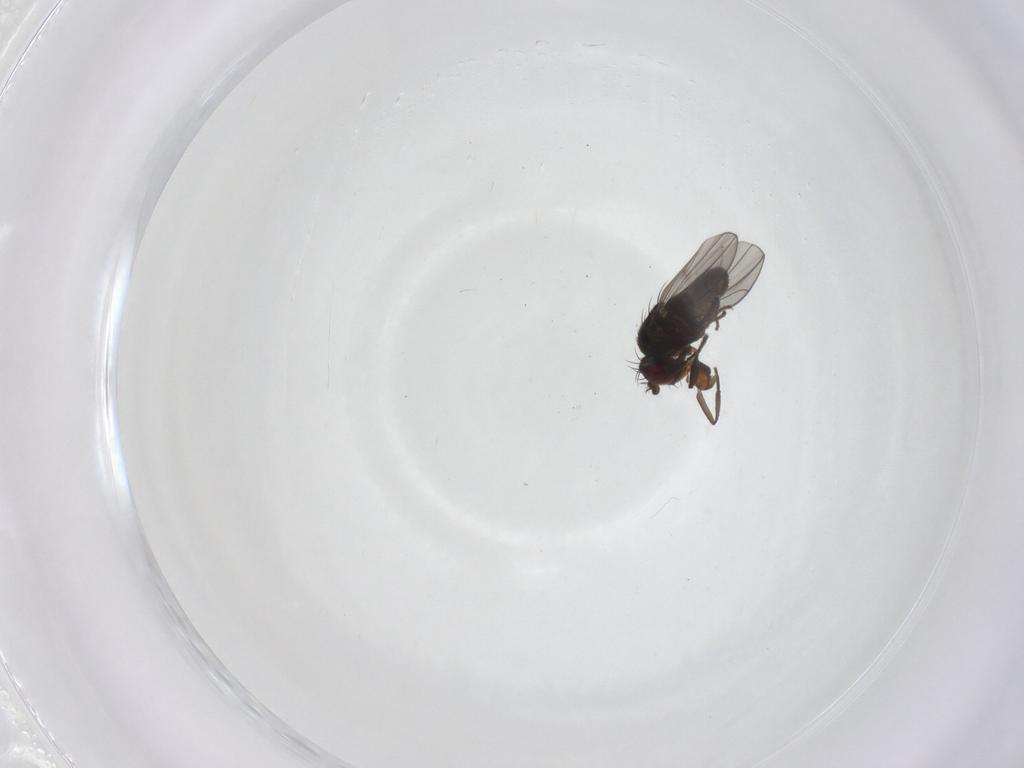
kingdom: Animalia
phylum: Arthropoda
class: Insecta
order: Diptera
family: Ephydridae
